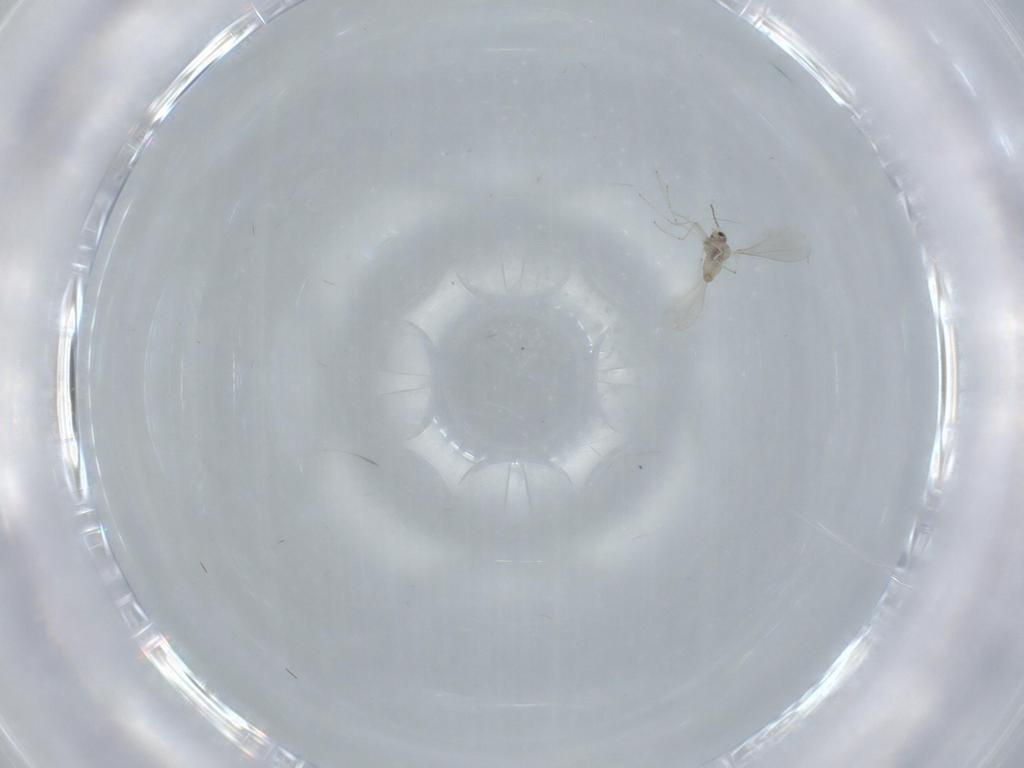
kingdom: Animalia
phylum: Arthropoda
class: Insecta
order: Diptera
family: Cecidomyiidae
